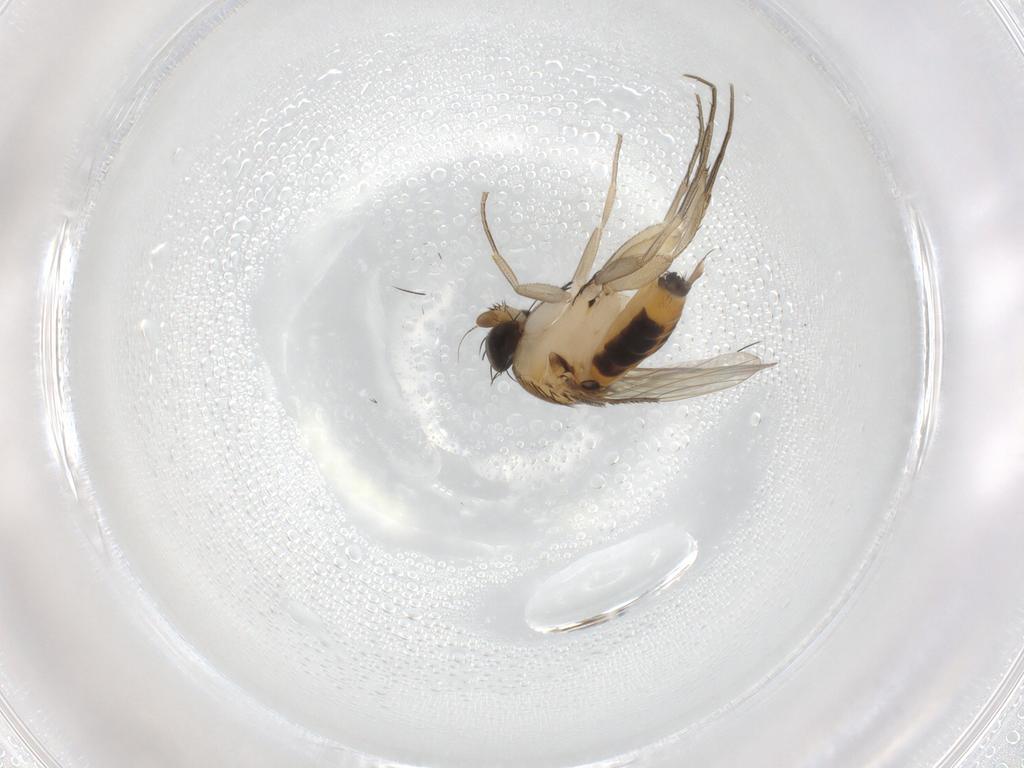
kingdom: Animalia
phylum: Arthropoda
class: Insecta
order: Diptera
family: Phoridae
